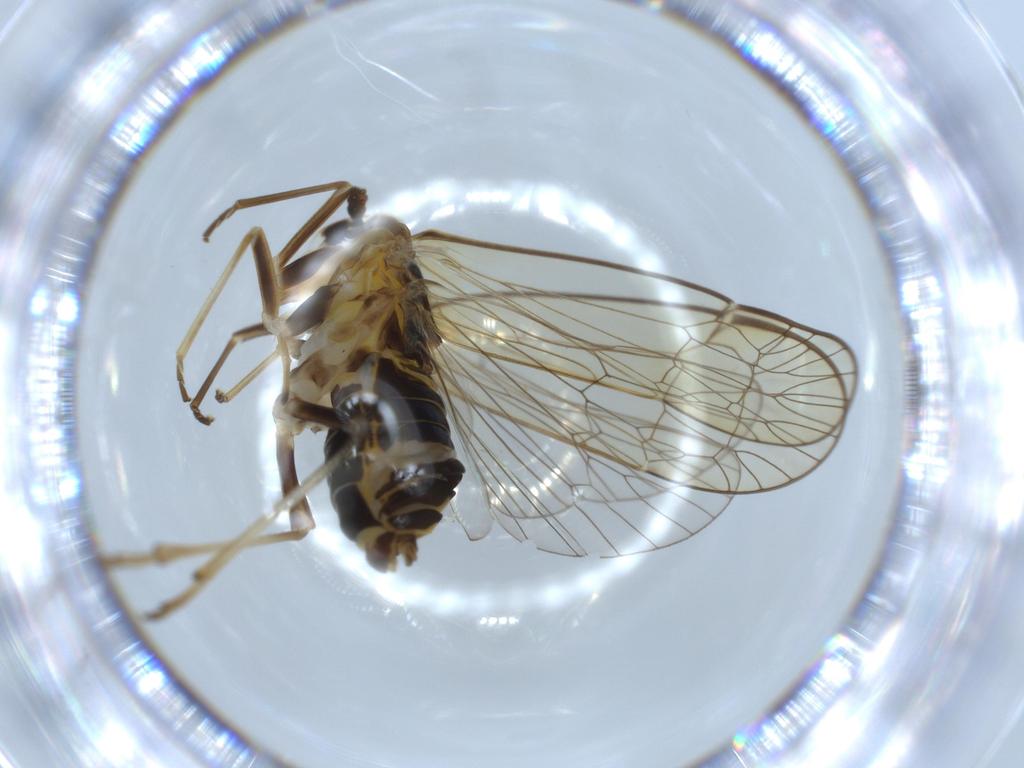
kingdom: Animalia
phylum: Arthropoda
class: Insecta
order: Hemiptera
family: Kinnaridae
